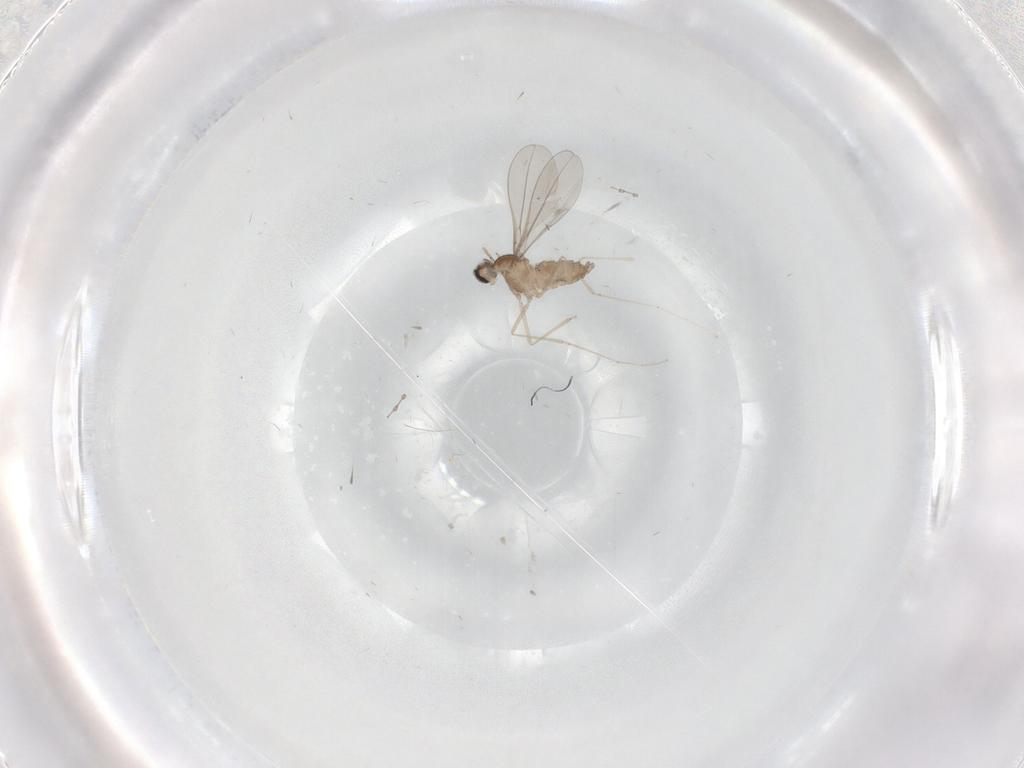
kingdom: Animalia
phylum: Arthropoda
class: Insecta
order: Diptera
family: Cecidomyiidae
